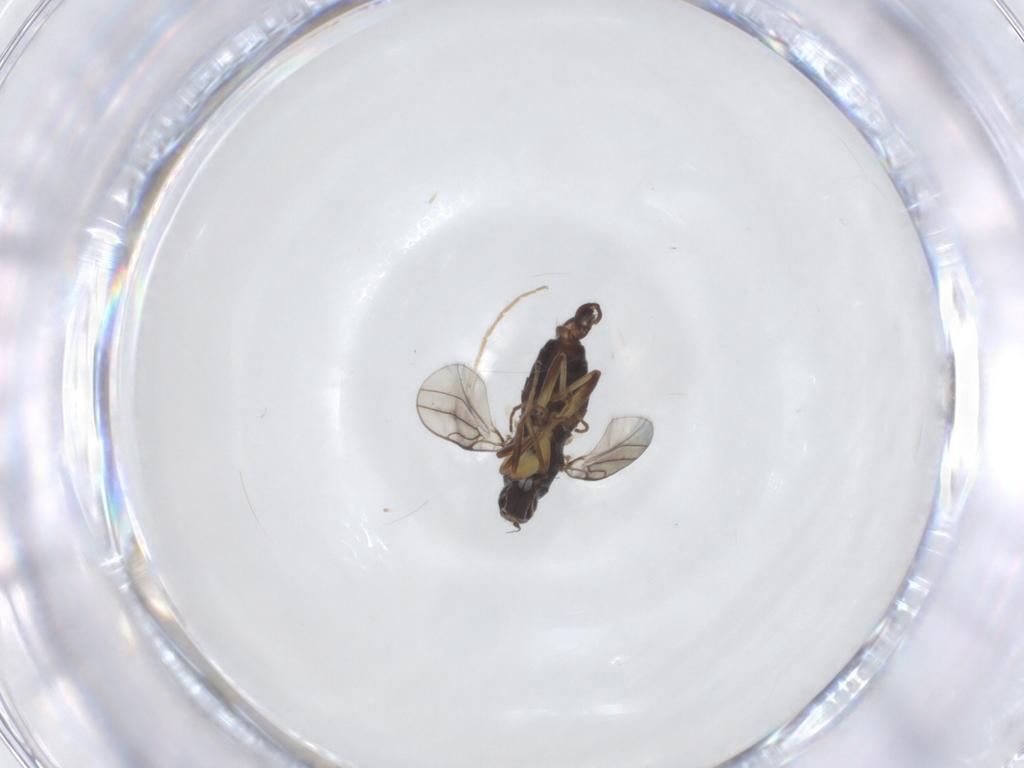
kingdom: Animalia
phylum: Arthropoda
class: Insecta
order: Diptera
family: Hybotidae
